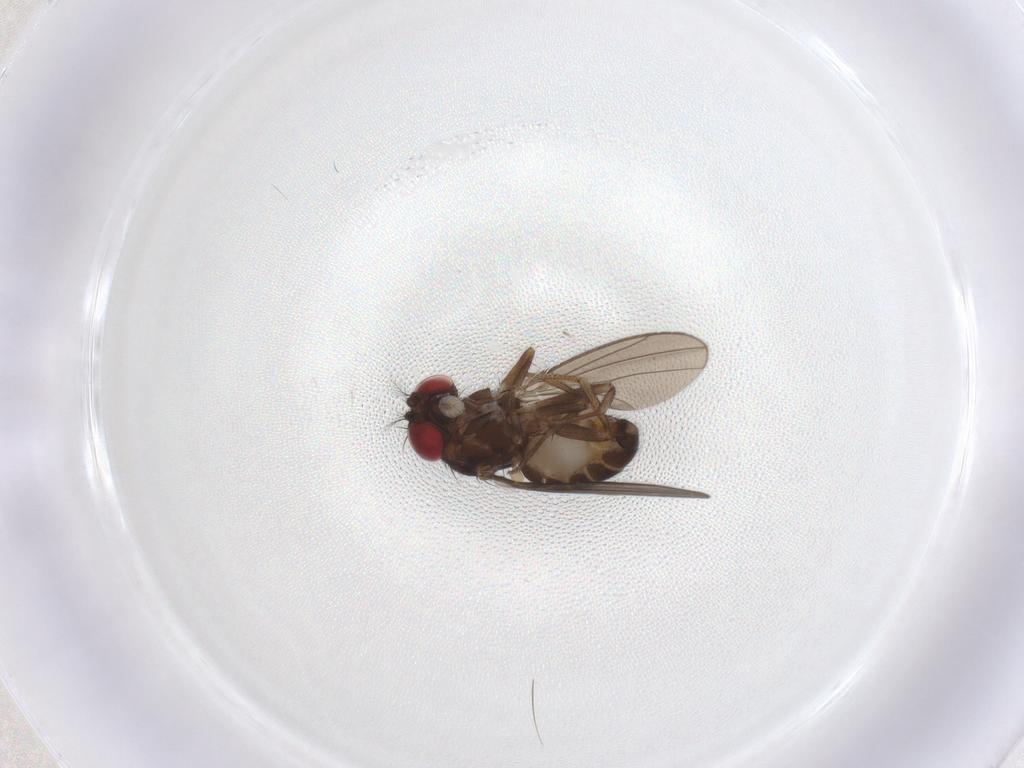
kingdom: Animalia
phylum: Arthropoda
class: Insecta
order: Diptera
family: Drosophilidae
